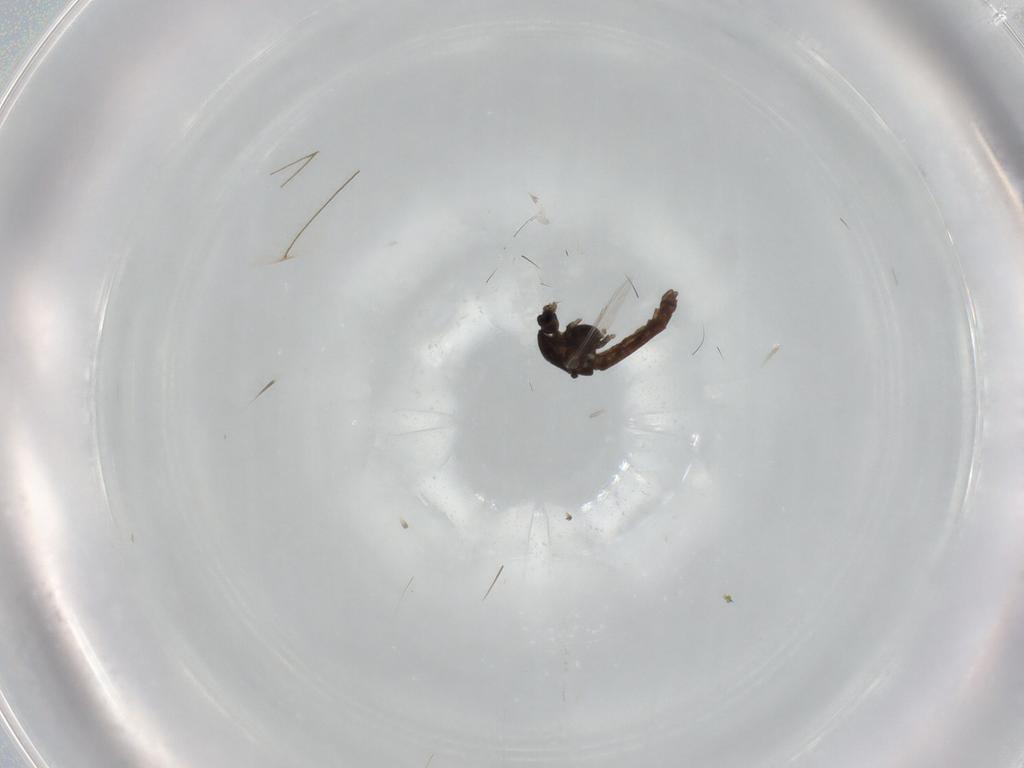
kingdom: Animalia
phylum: Arthropoda
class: Insecta
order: Diptera
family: Chironomidae
